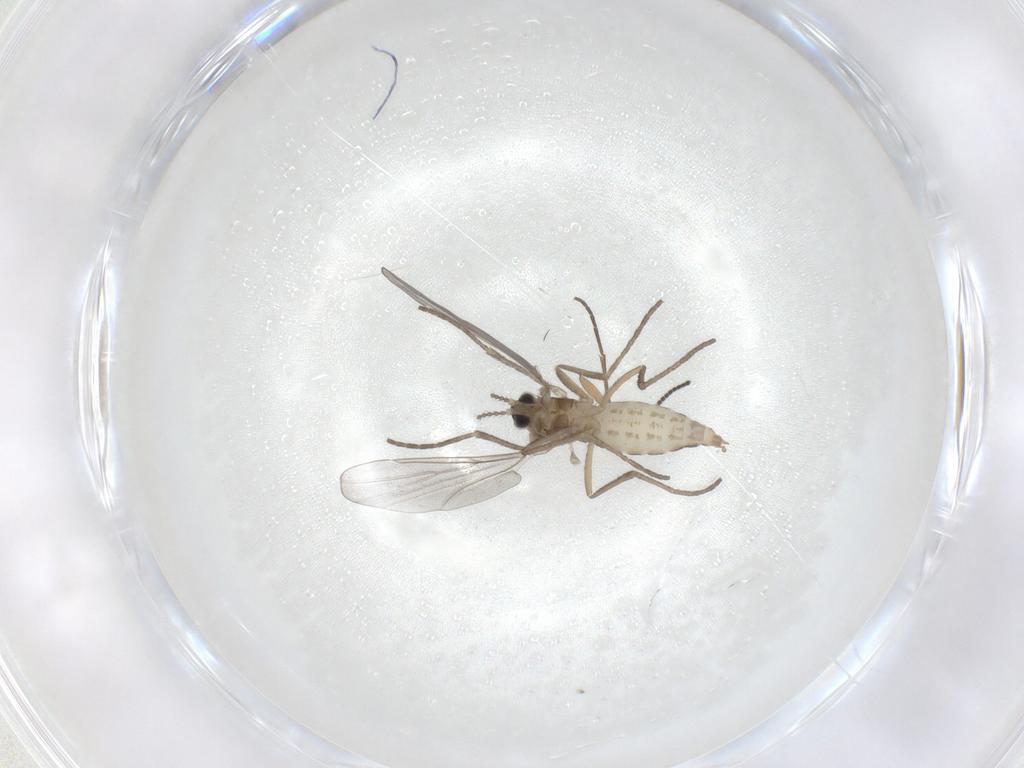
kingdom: Animalia
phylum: Arthropoda
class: Insecta
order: Diptera
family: Cecidomyiidae
